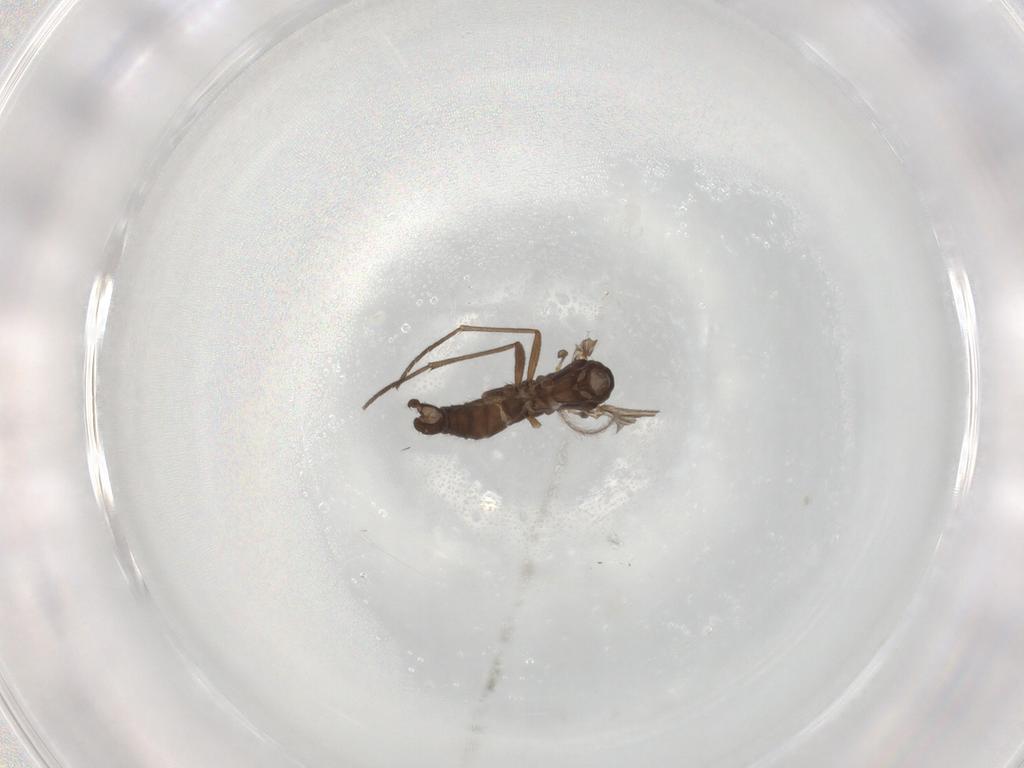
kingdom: Animalia
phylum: Arthropoda
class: Insecta
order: Diptera
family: Sciaridae
